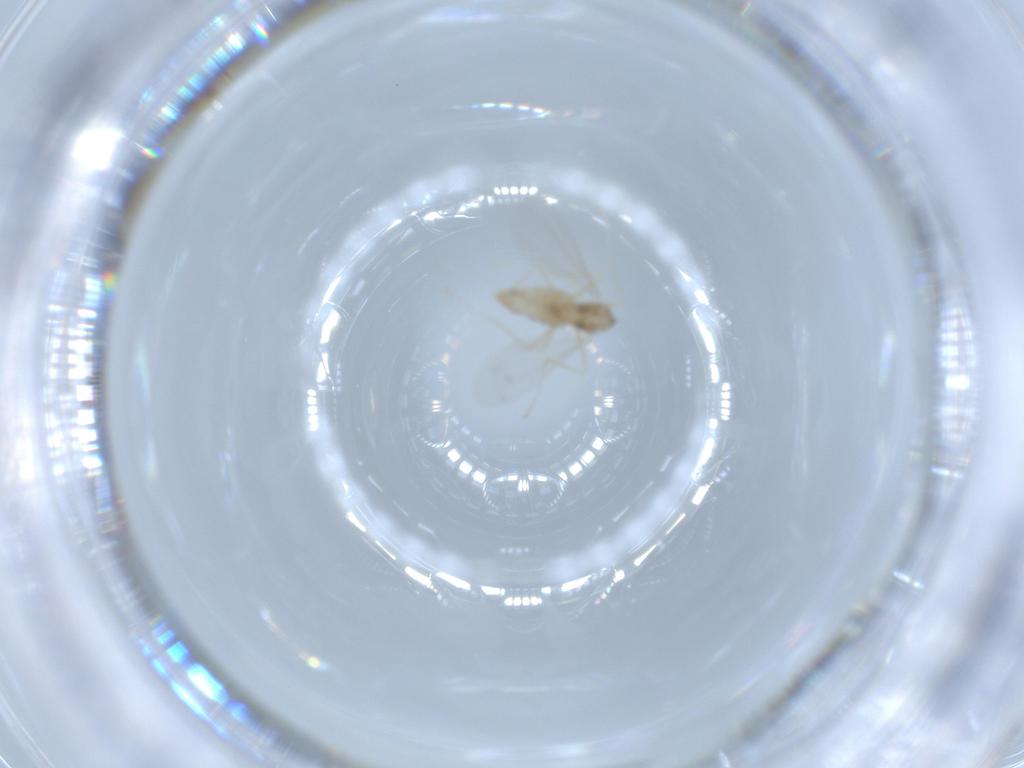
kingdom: Animalia
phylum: Arthropoda
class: Insecta
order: Diptera
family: Cecidomyiidae
